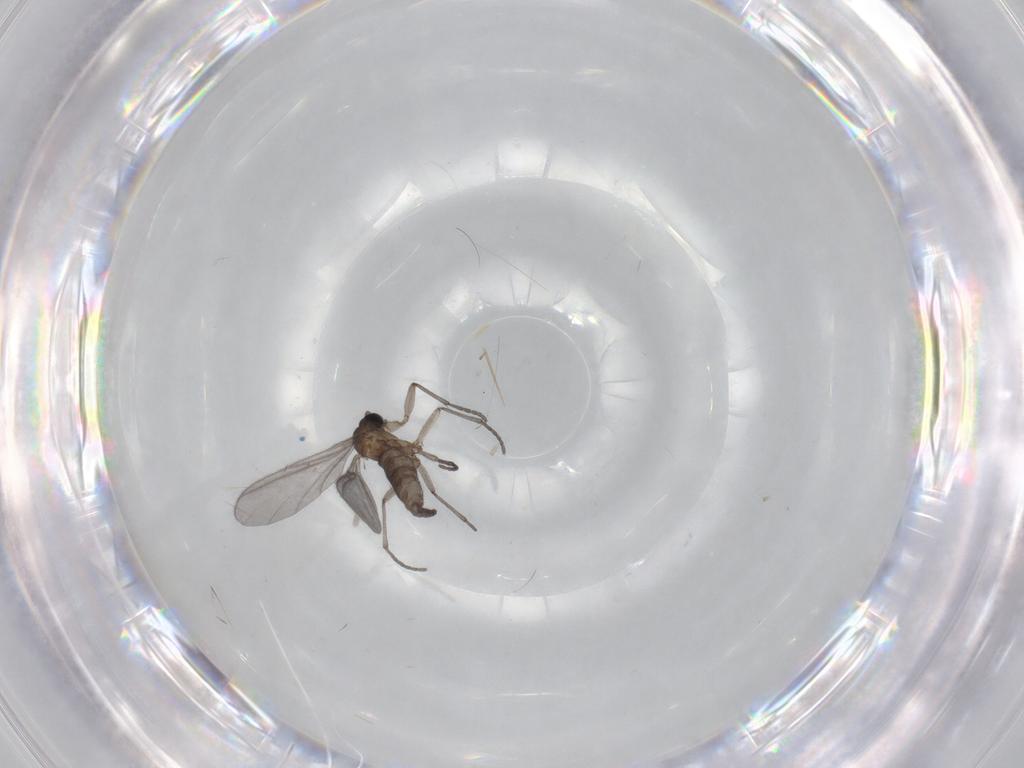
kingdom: Animalia
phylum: Arthropoda
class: Insecta
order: Diptera
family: Sciaridae
